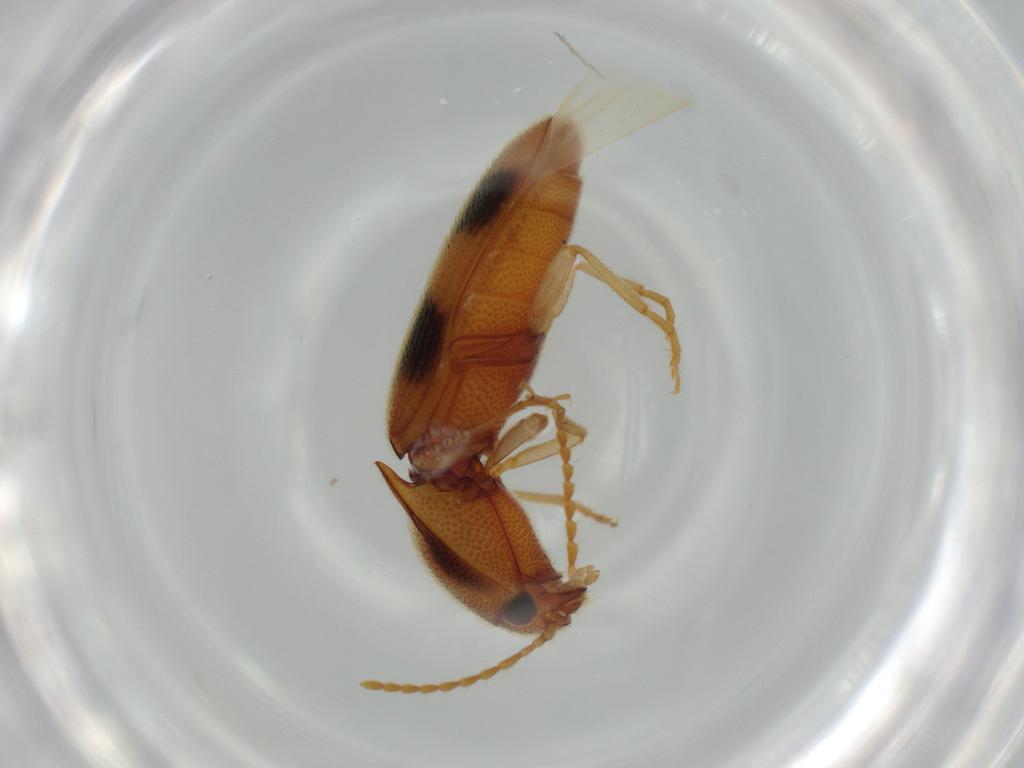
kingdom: Animalia
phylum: Arthropoda
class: Insecta
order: Coleoptera
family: Elateridae
